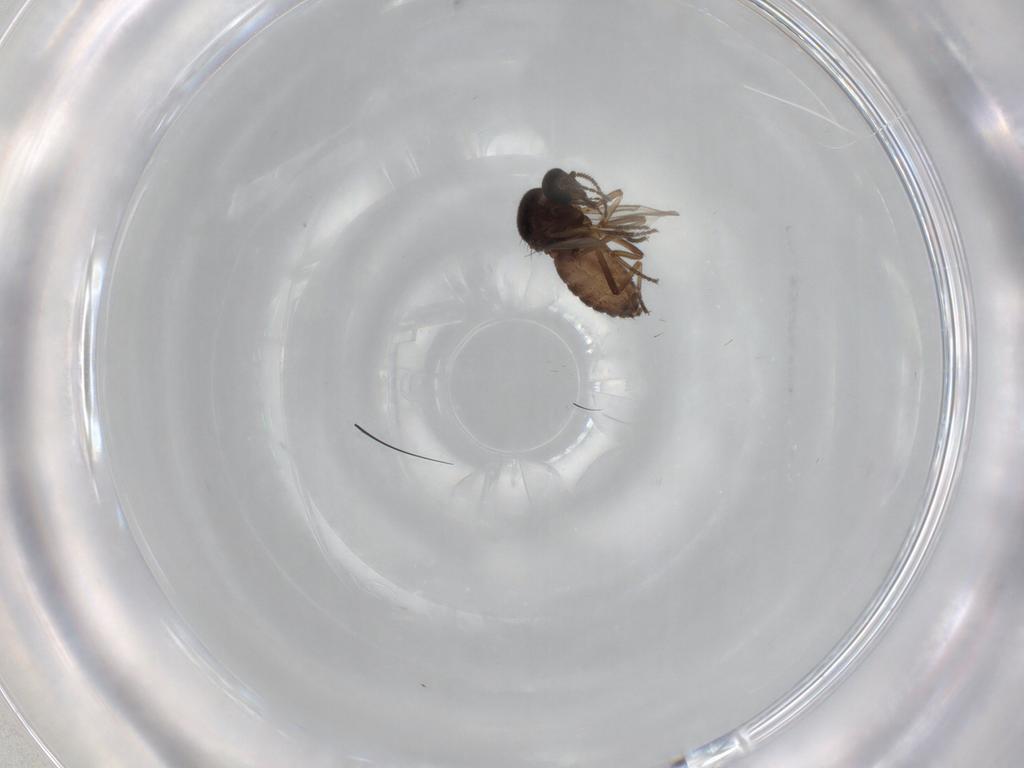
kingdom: Animalia
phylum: Arthropoda
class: Insecta
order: Diptera
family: Ceratopogonidae
